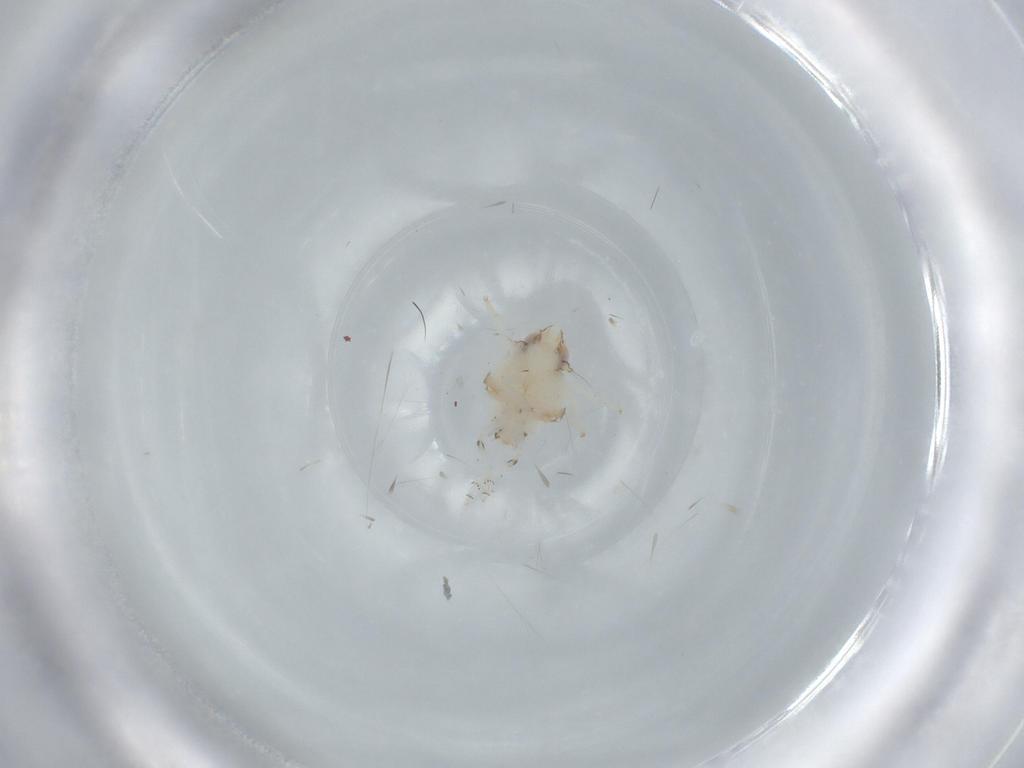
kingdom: Animalia
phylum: Arthropoda
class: Insecta
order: Hemiptera
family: Nogodinidae
